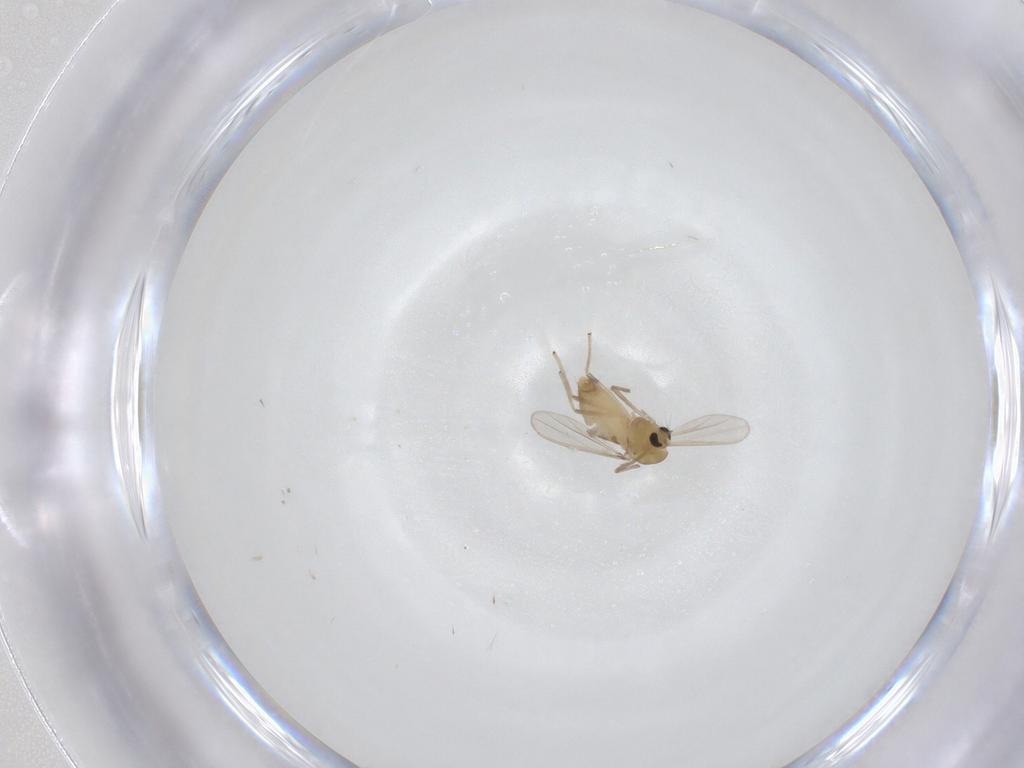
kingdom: Animalia
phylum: Arthropoda
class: Insecta
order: Diptera
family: Chironomidae
